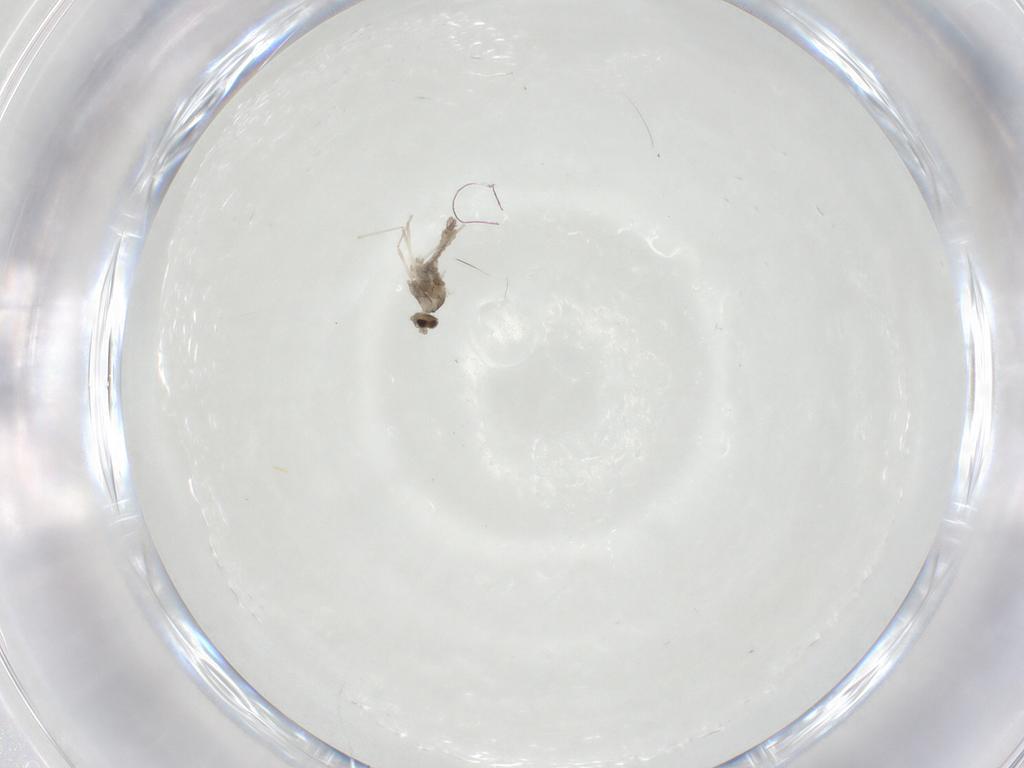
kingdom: Animalia
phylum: Arthropoda
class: Insecta
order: Diptera
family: Cecidomyiidae
